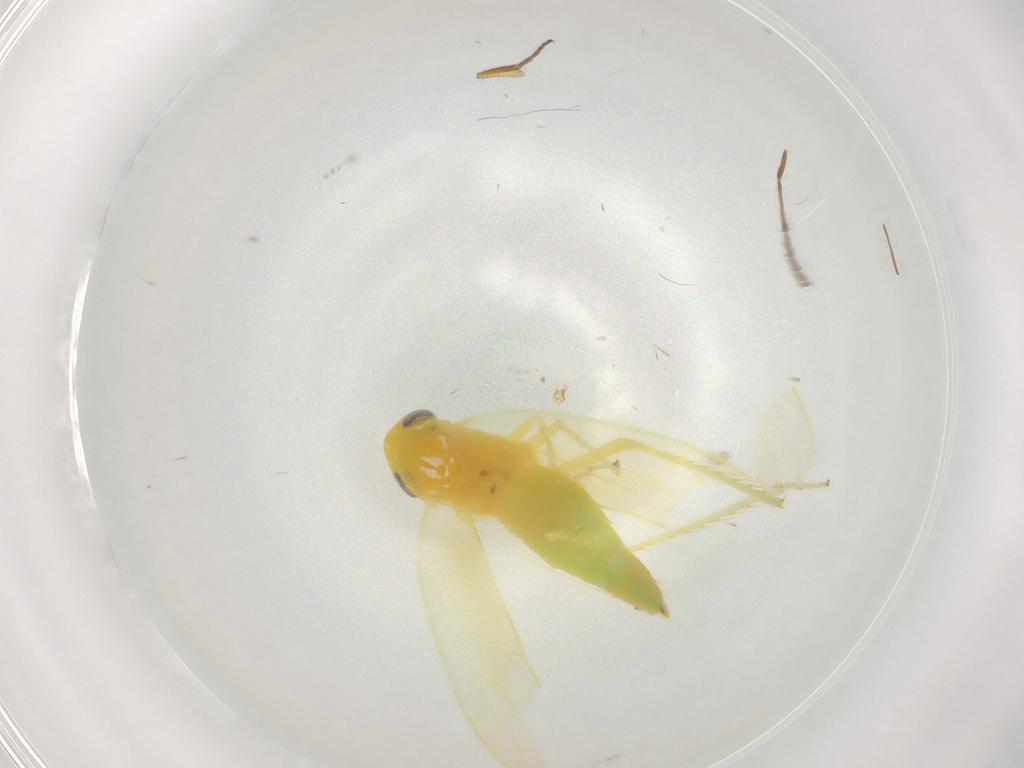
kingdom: Animalia
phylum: Arthropoda
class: Insecta
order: Hemiptera
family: Cicadellidae
